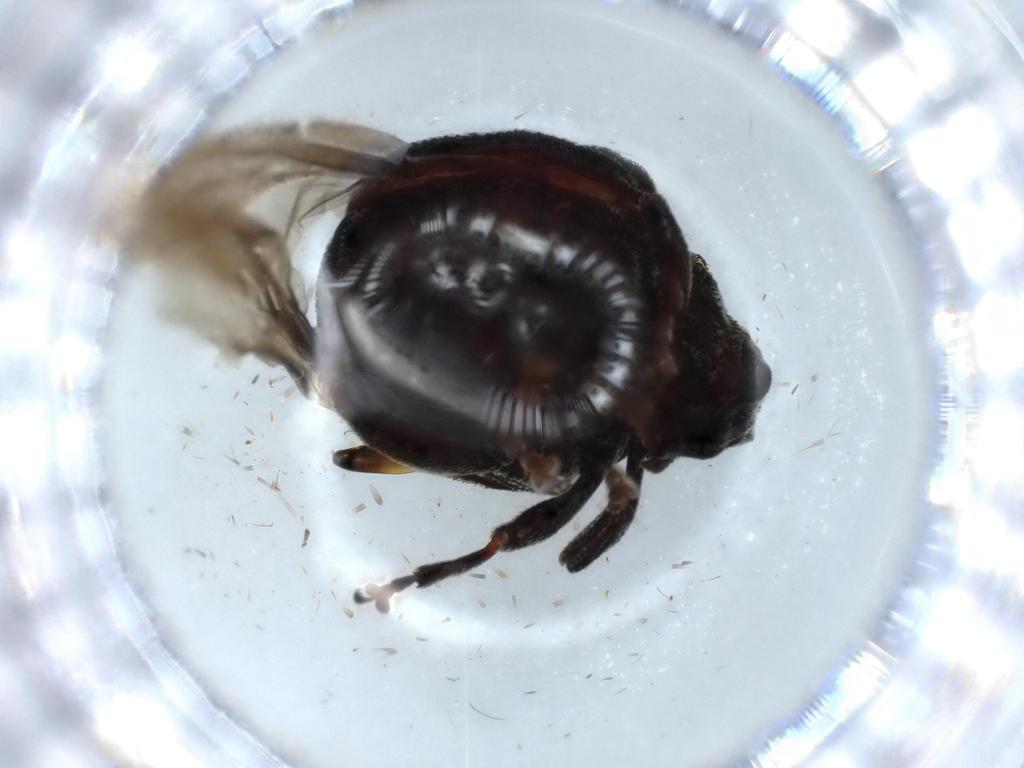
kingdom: Animalia
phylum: Arthropoda
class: Insecta
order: Coleoptera
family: Curculionidae
